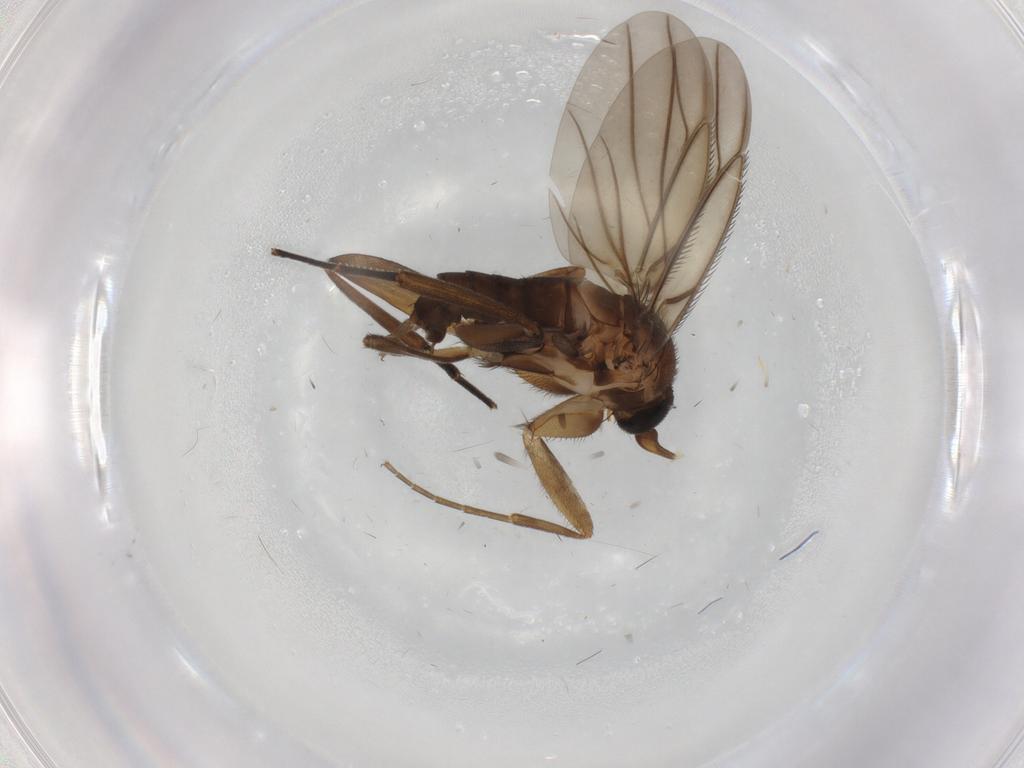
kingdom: Animalia
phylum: Arthropoda
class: Insecta
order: Diptera
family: Phoridae
